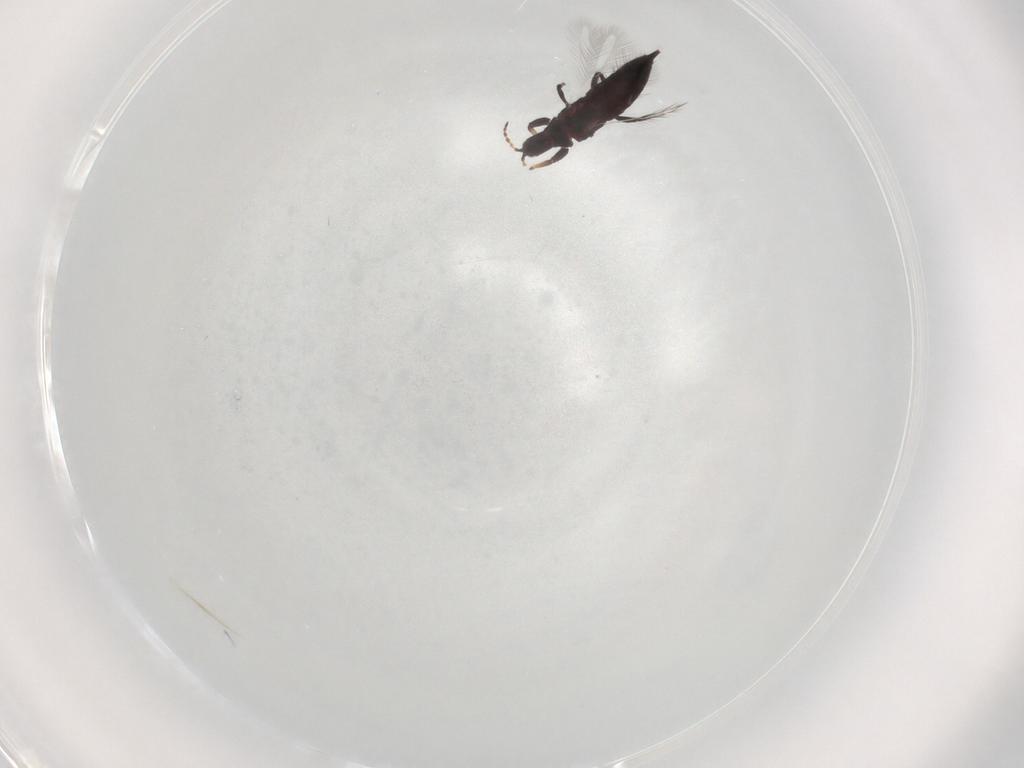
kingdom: Animalia
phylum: Arthropoda
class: Insecta
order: Thysanoptera
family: Phlaeothripidae
